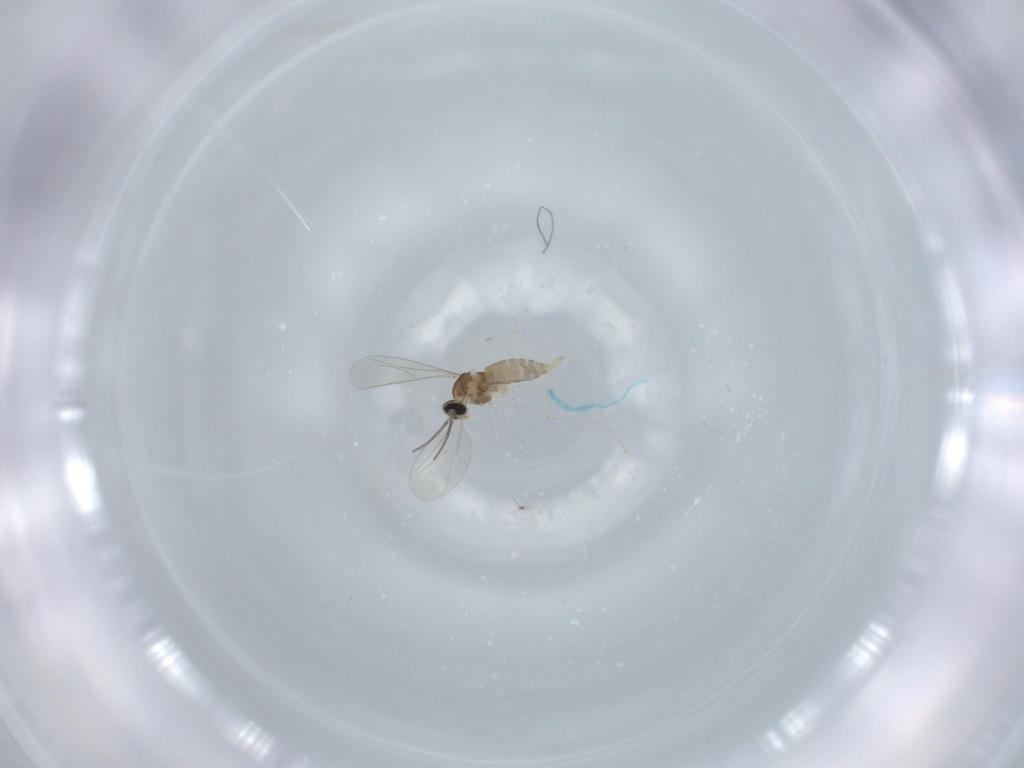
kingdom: Animalia
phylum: Arthropoda
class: Insecta
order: Diptera
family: Cecidomyiidae
